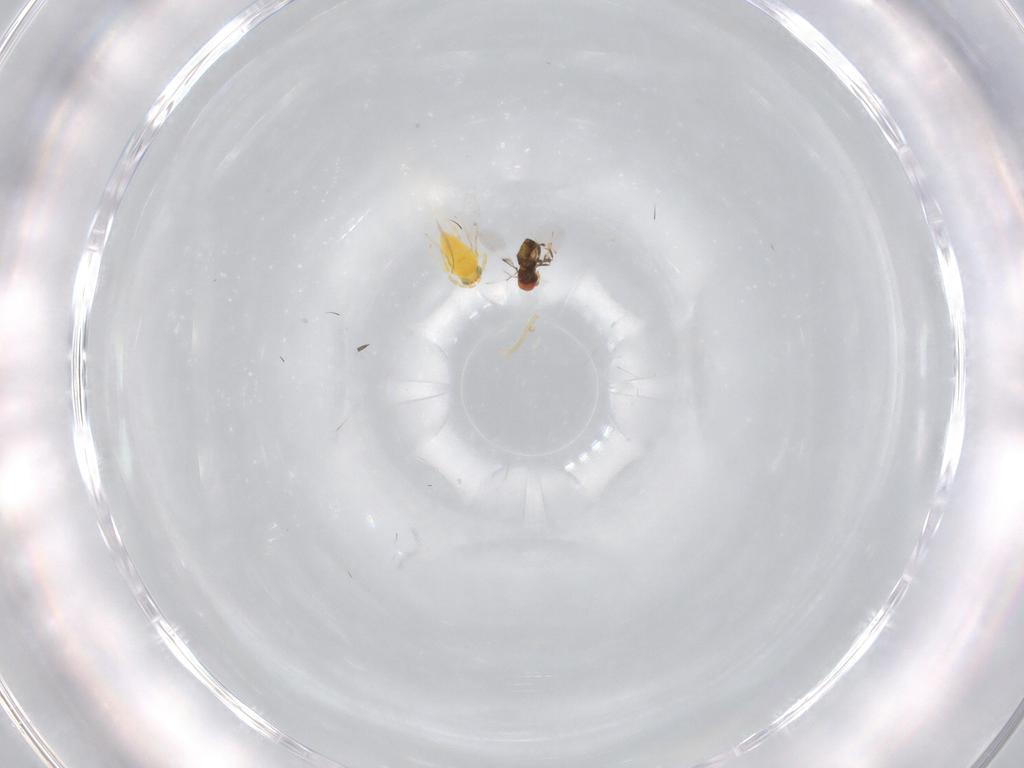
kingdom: Animalia
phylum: Arthropoda
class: Insecta
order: Hymenoptera
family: Trichogrammatidae
